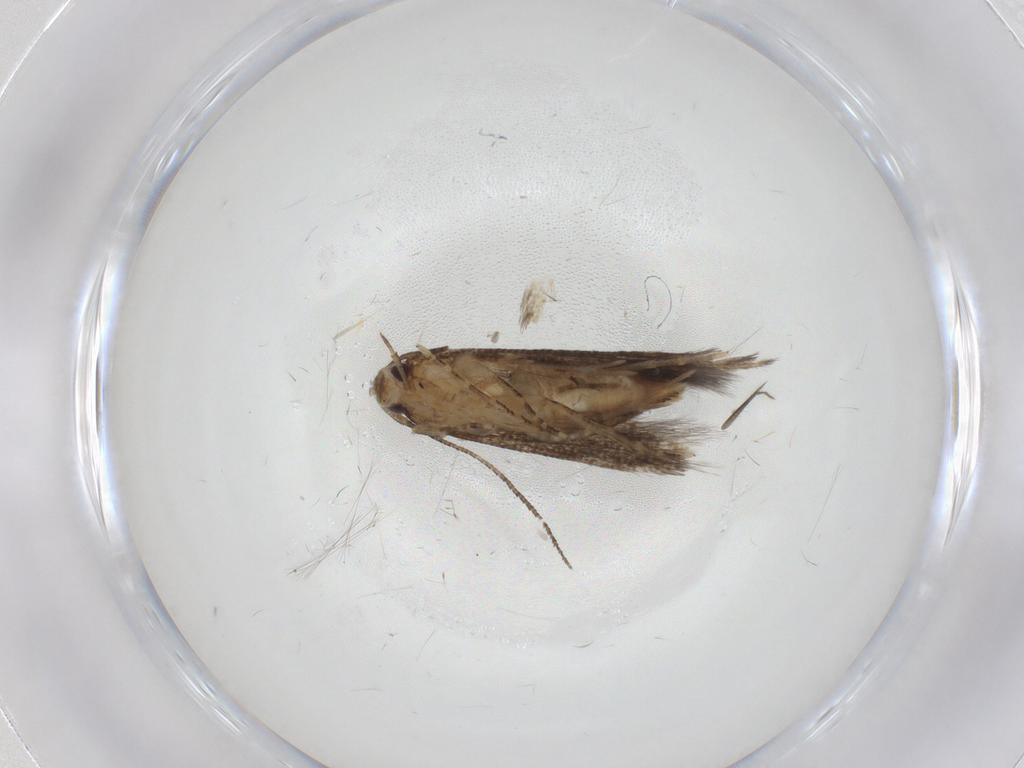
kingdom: Animalia
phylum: Arthropoda
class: Insecta
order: Lepidoptera
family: Cosmopterigidae
